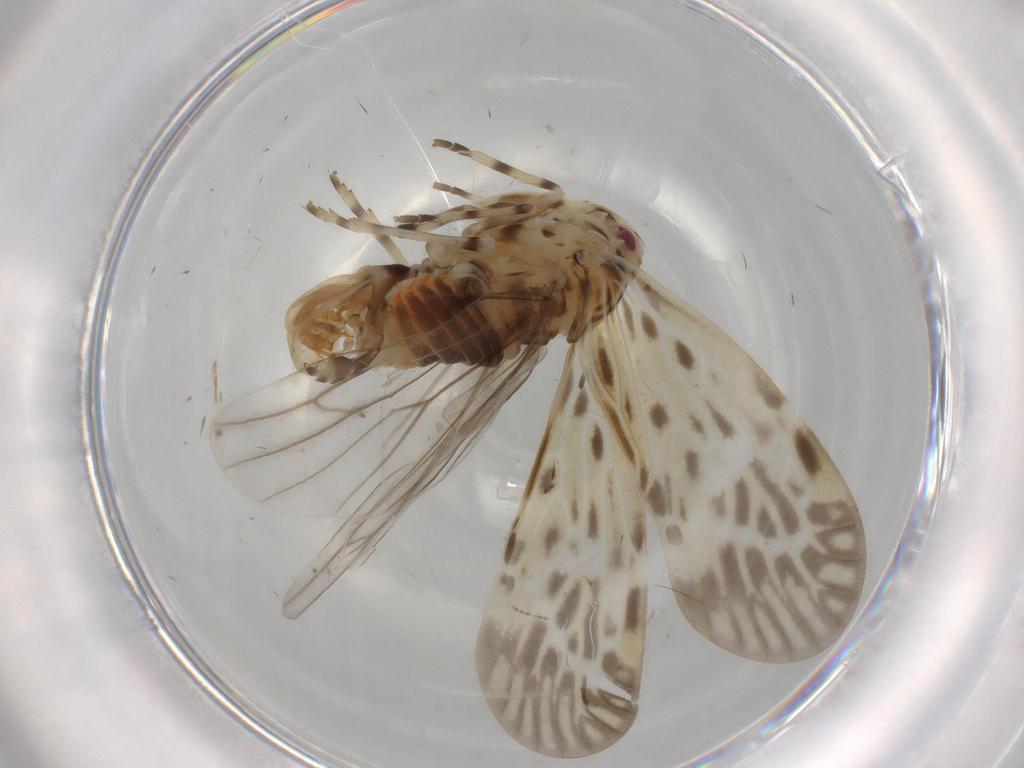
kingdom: Animalia
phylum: Arthropoda
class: Insecta
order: Hemiptera
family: Derbidae
